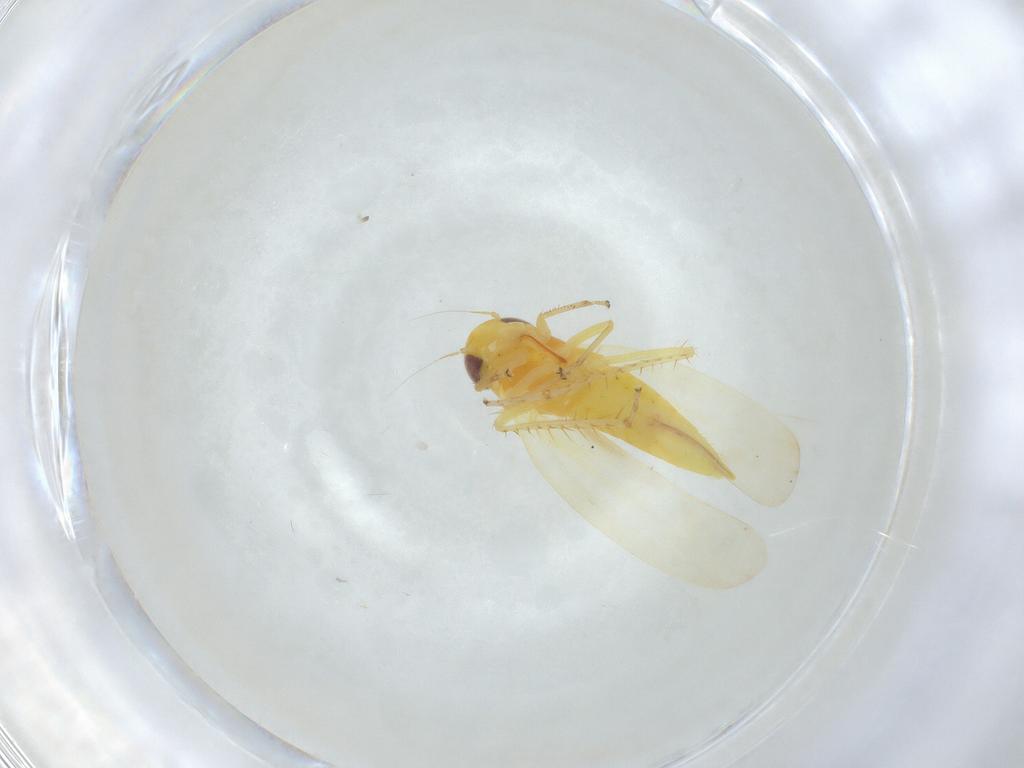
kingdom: Animalia
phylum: Arthropoda
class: Insecta
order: Hemiptera
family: Cicadellidae
